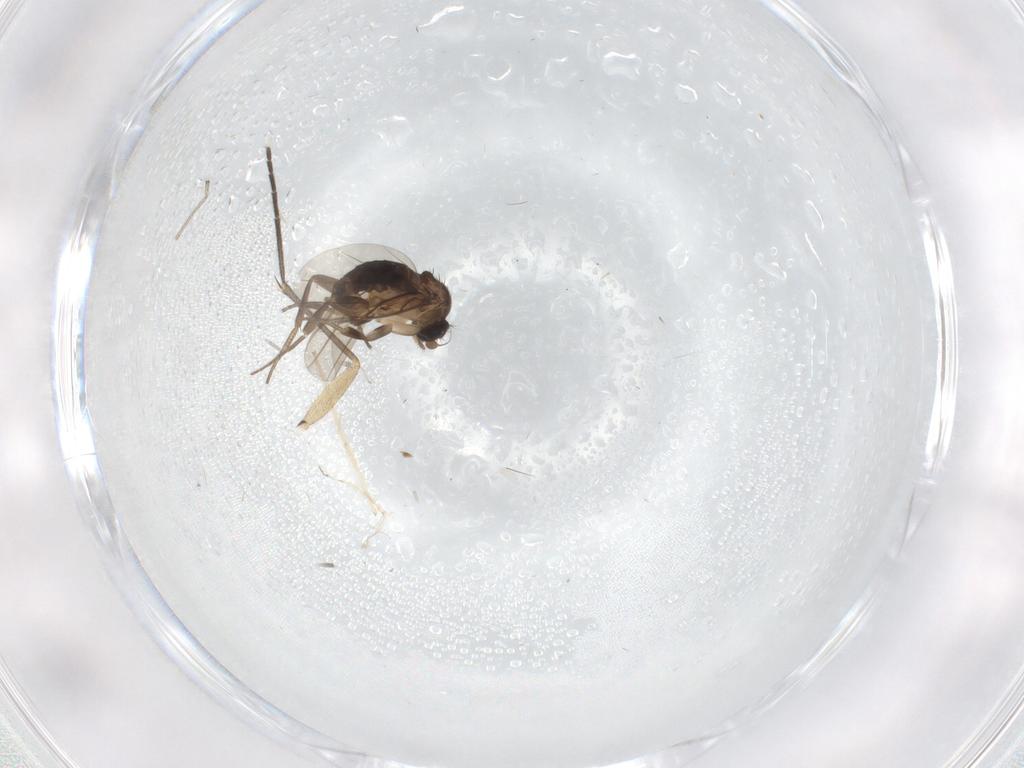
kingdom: Animalia
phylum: Arthropoda
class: Insecta
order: Diptera
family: Sciaridae
